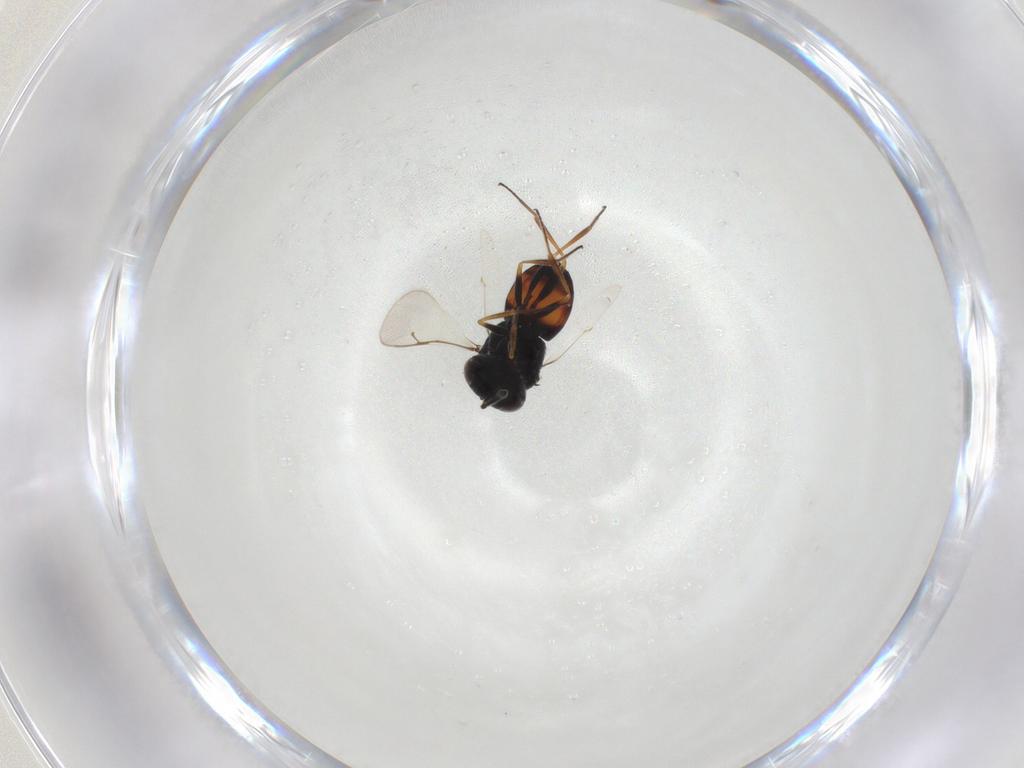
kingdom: Animalia
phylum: Arthropoda
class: Insecta
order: Hymenoptera
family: Scelionidae
